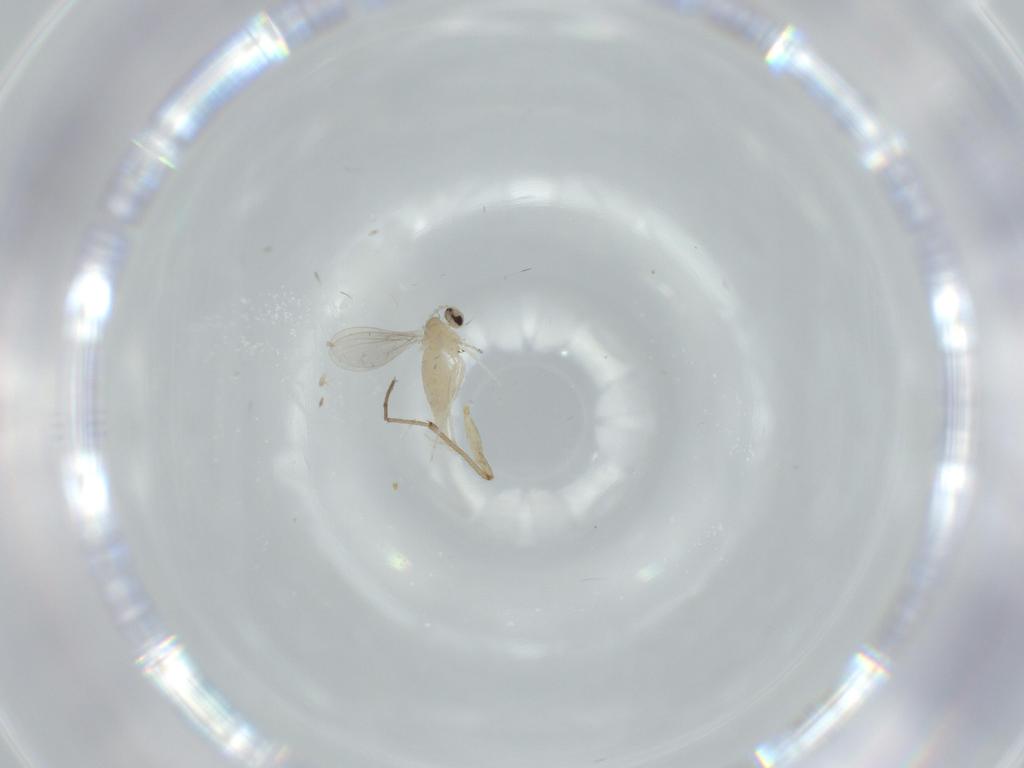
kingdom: Animalia
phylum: Arthropoda
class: Insecta
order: Diptera
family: Cecidomyiidae
